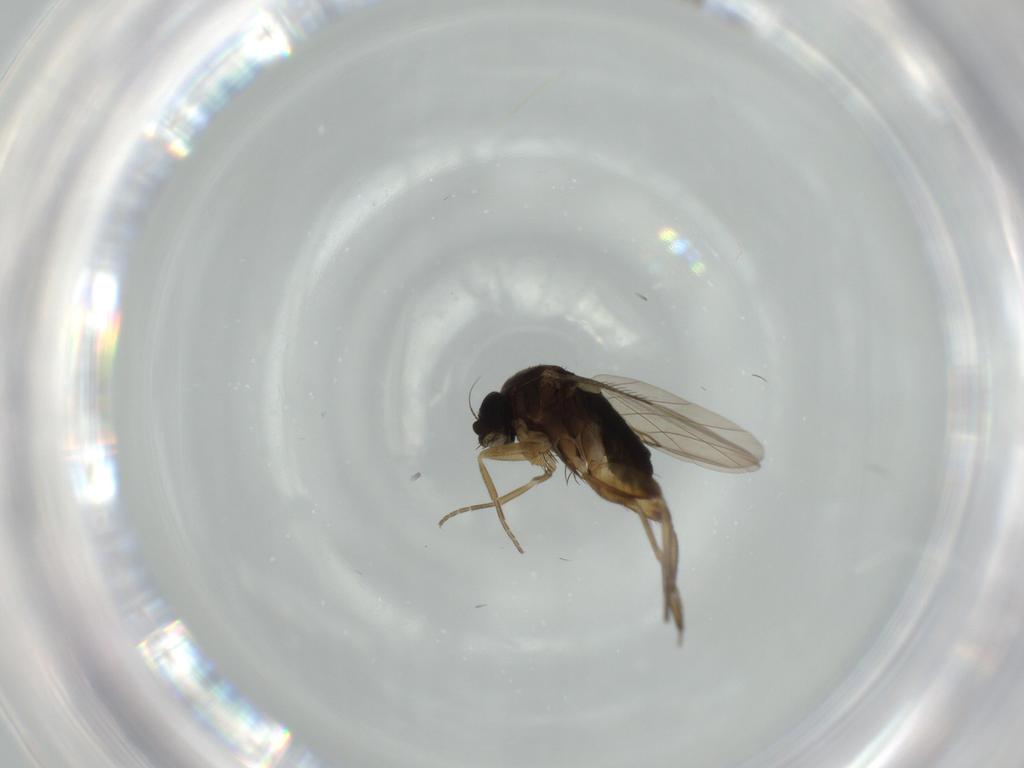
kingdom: Animalia
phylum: Arthropoda
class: Insecta
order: Diptera
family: Phoridae
